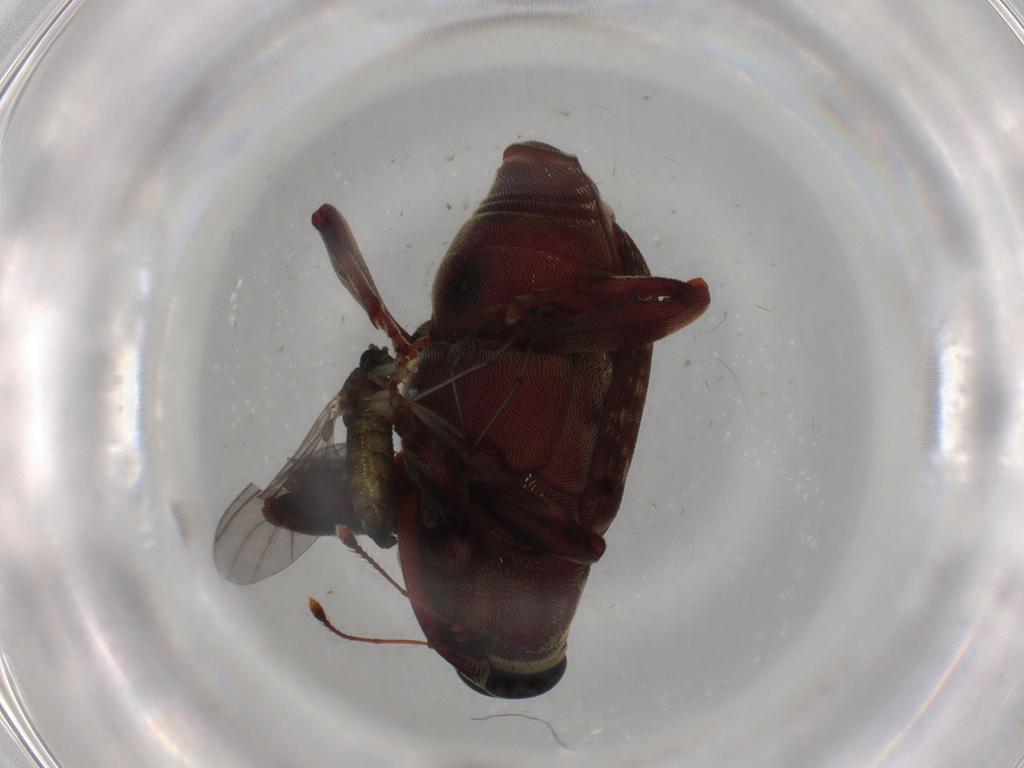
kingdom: Animalia
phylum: Arthropoda
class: Insecta
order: Diptera
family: Sciaridae
